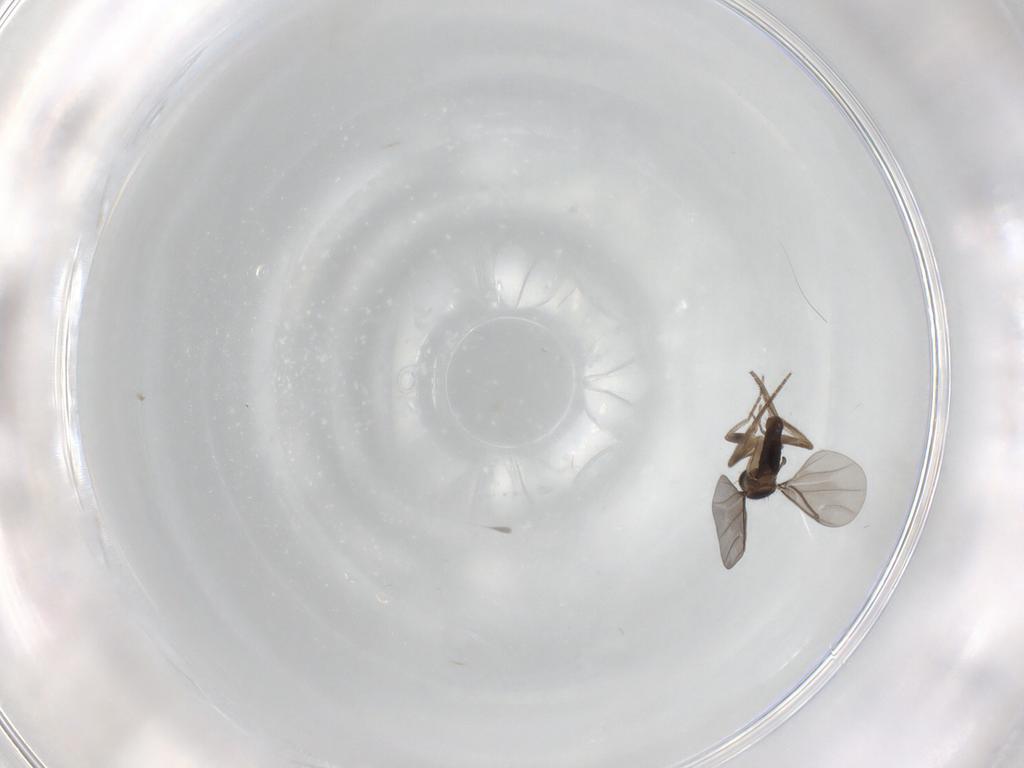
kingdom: Animalia
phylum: Arthropoda
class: Insecta
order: Diptera
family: Phoridae
